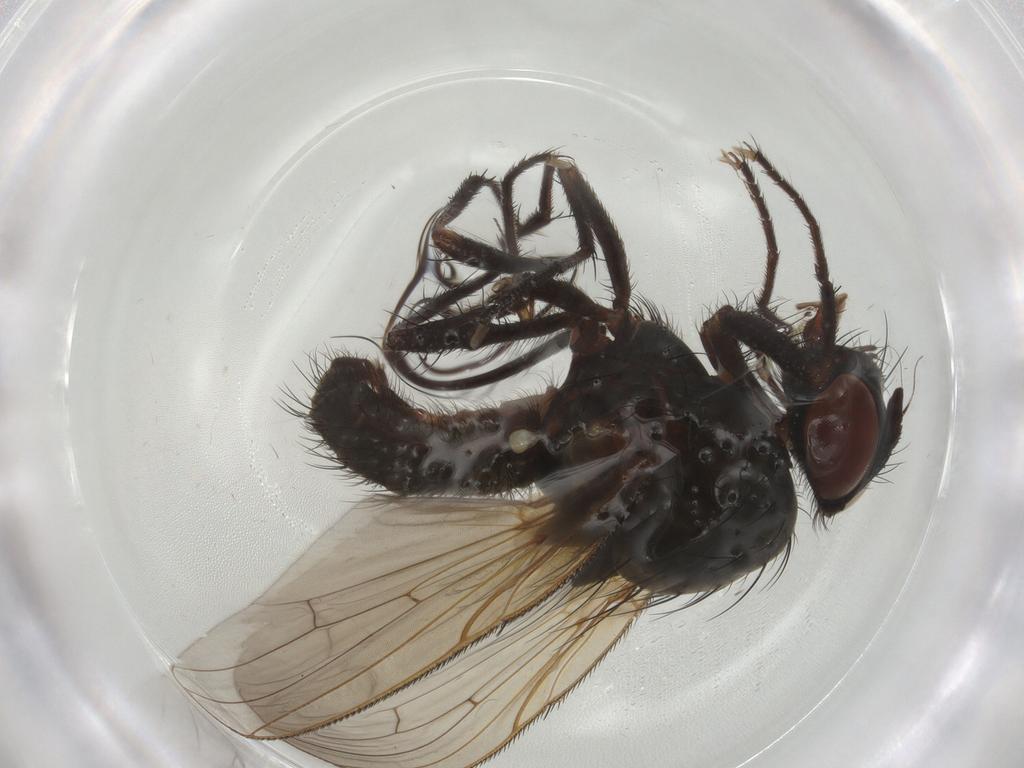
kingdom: Animalia
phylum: Arthropoda
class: Insecta
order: Diptera
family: Anthomyiidae
